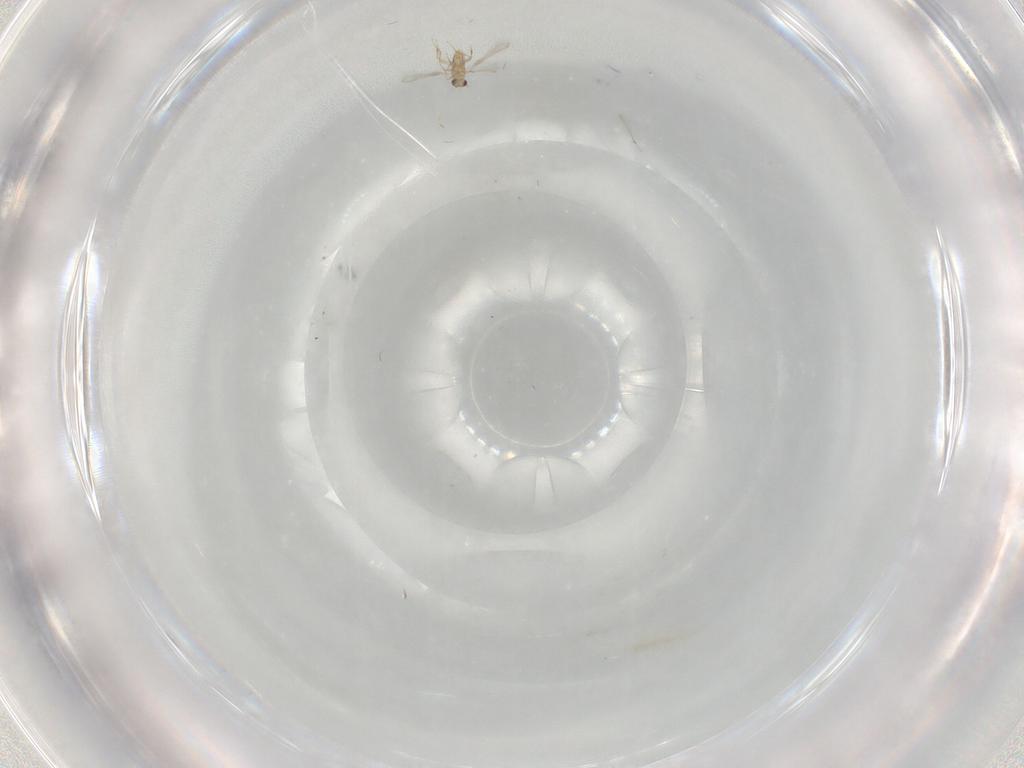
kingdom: Animalia
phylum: Arthropoda
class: Insecta
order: Hymenoptera
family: Mymaridae
